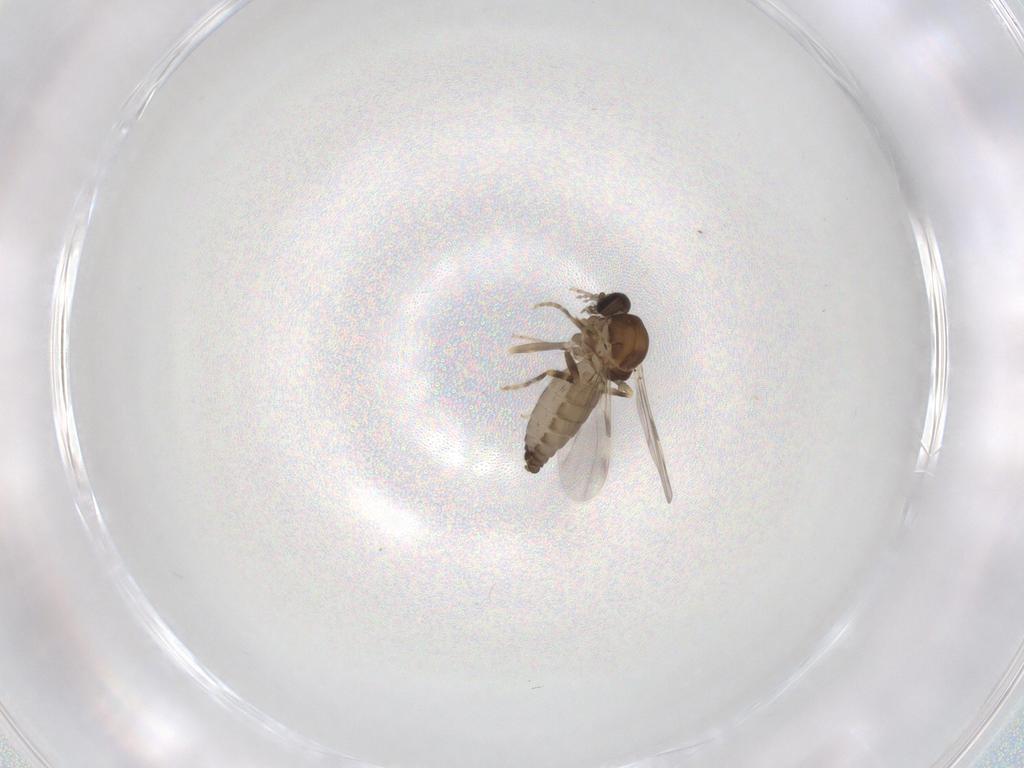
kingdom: Animalia
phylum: Arthropoda
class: Insecta
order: Diptera
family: Ceratopogonidae
